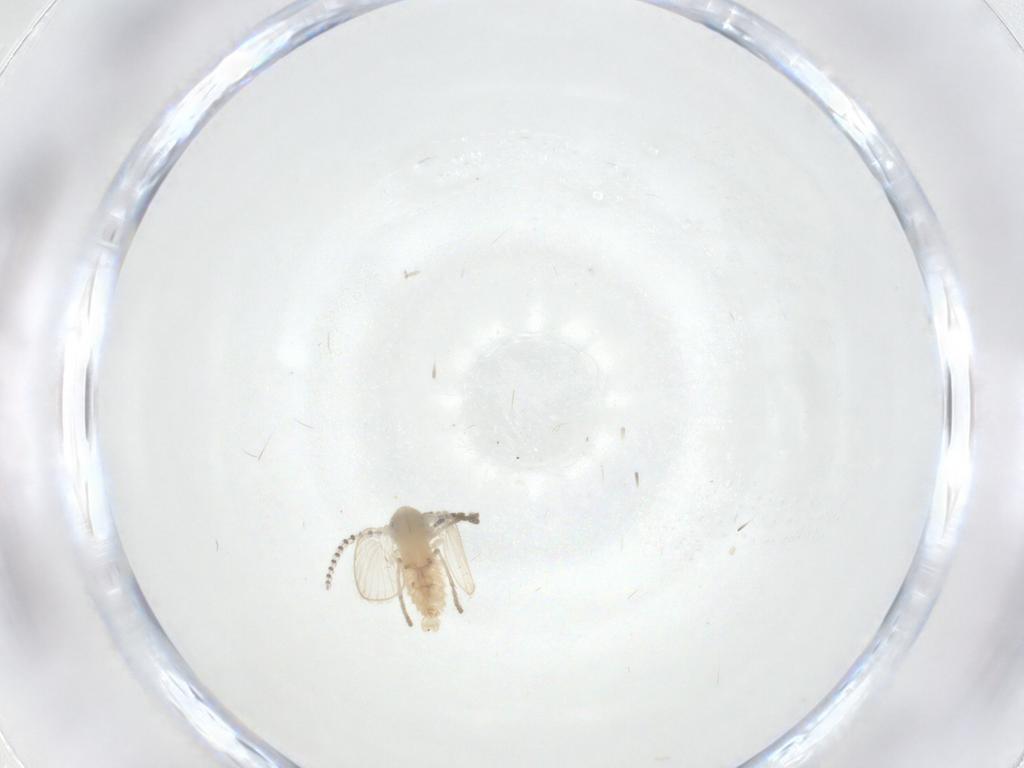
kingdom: Animalia
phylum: Arthropoda
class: Insecta
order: Diptera
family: Psychodidae
